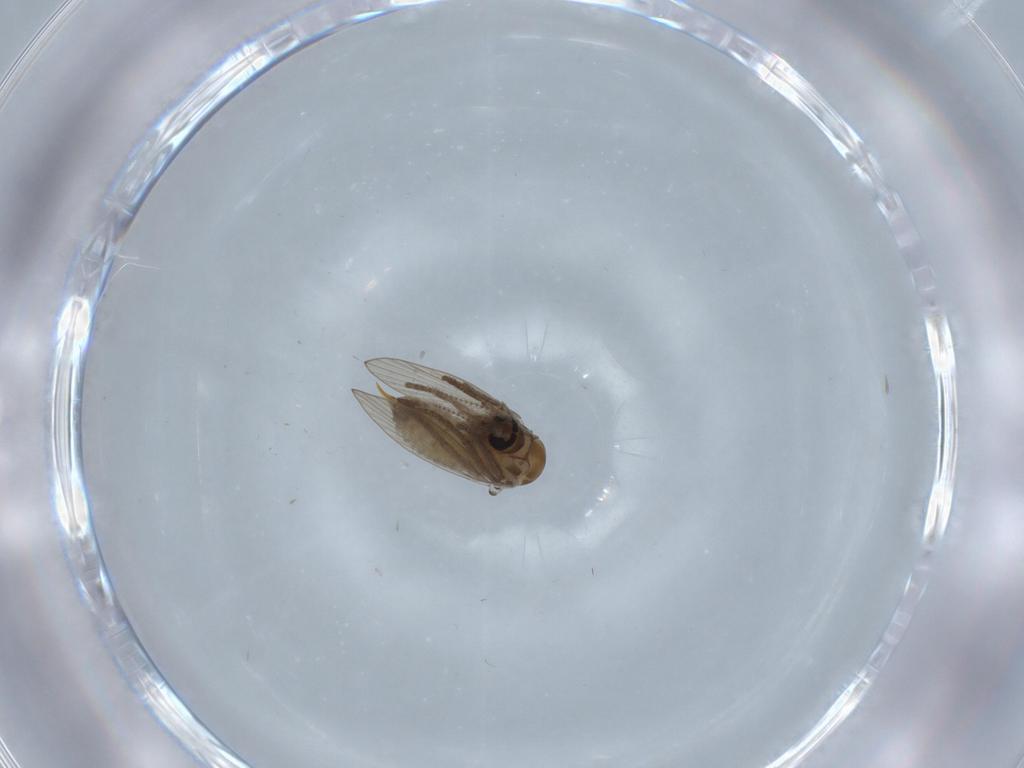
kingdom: Animalia
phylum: Arthropoda
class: Insecta
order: Diptera
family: Psychodidae
